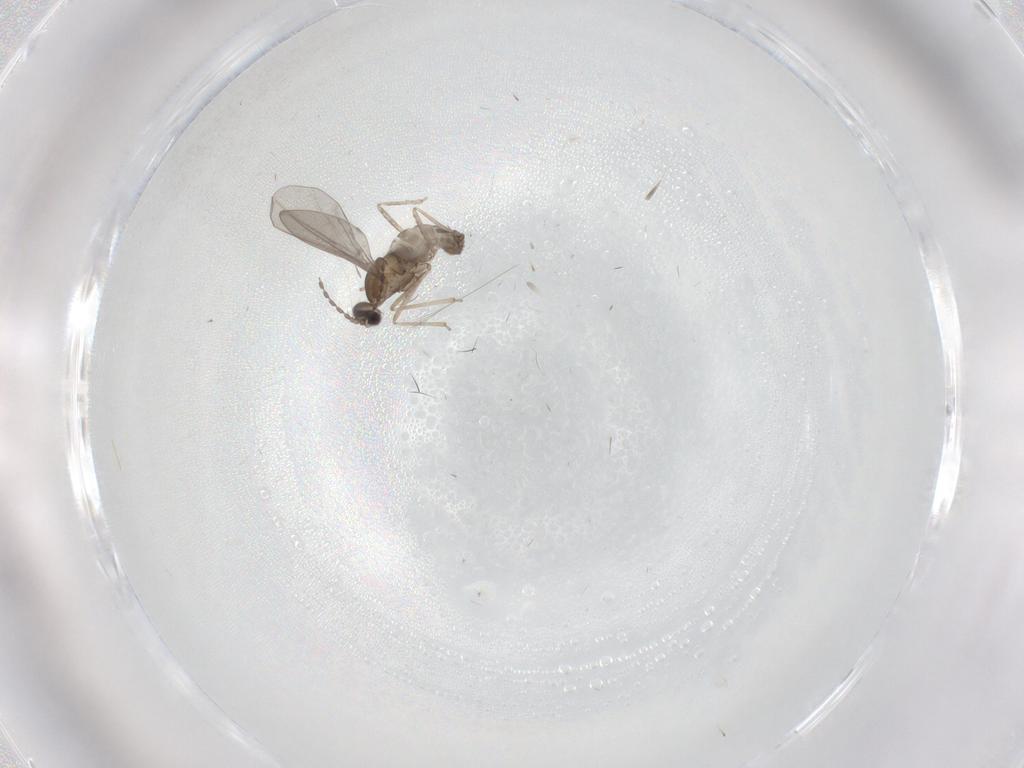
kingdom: Animalia
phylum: Arthropoda
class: Insecta
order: Diptera
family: Cecidomyiidae
